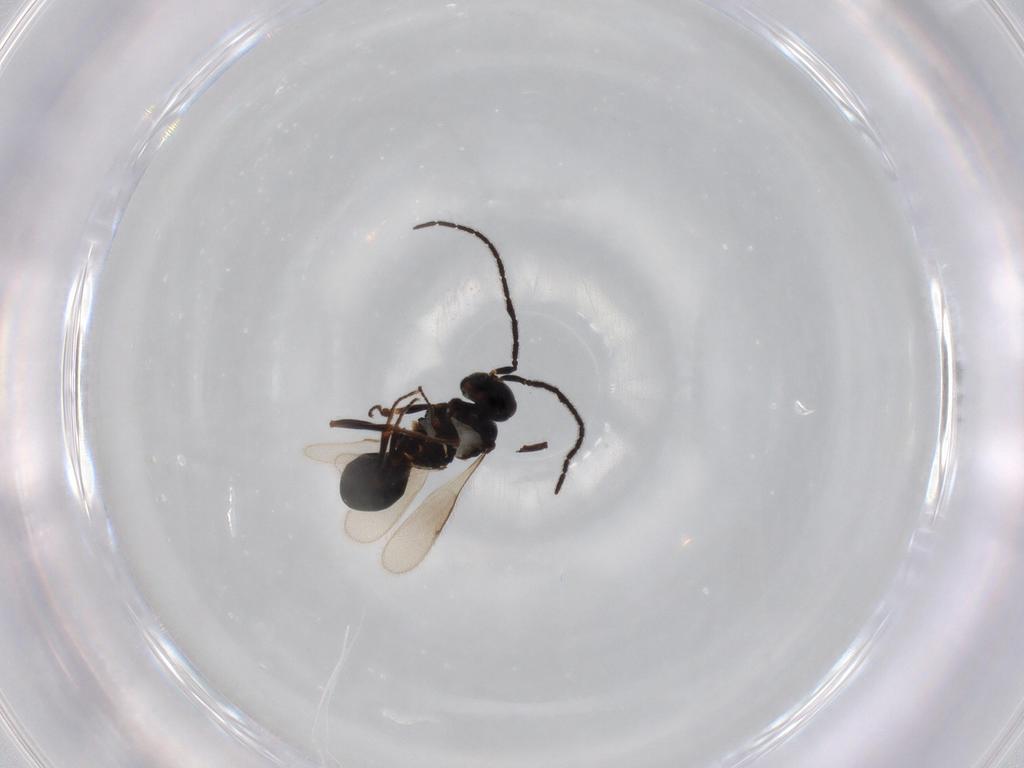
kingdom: Animalia
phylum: Arthropoda
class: Insecta
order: Hymenoptera
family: Scelionidae
